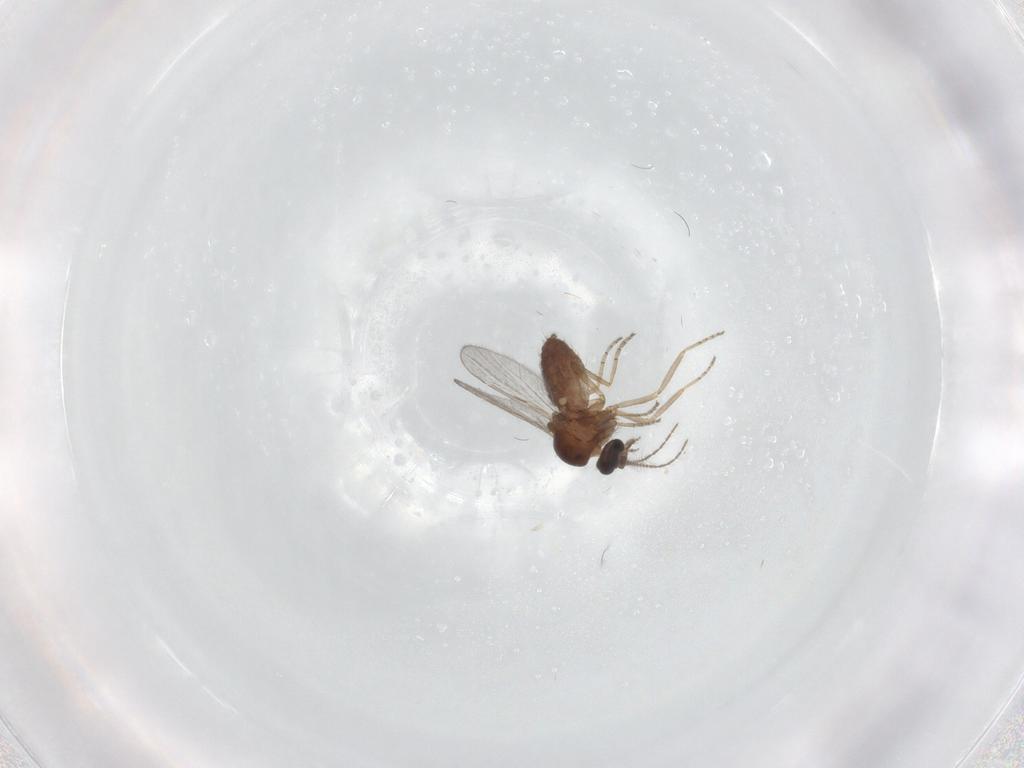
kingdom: Animalia
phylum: Arthropoda
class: Insecta
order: Diptera
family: Ceratopogonidae
